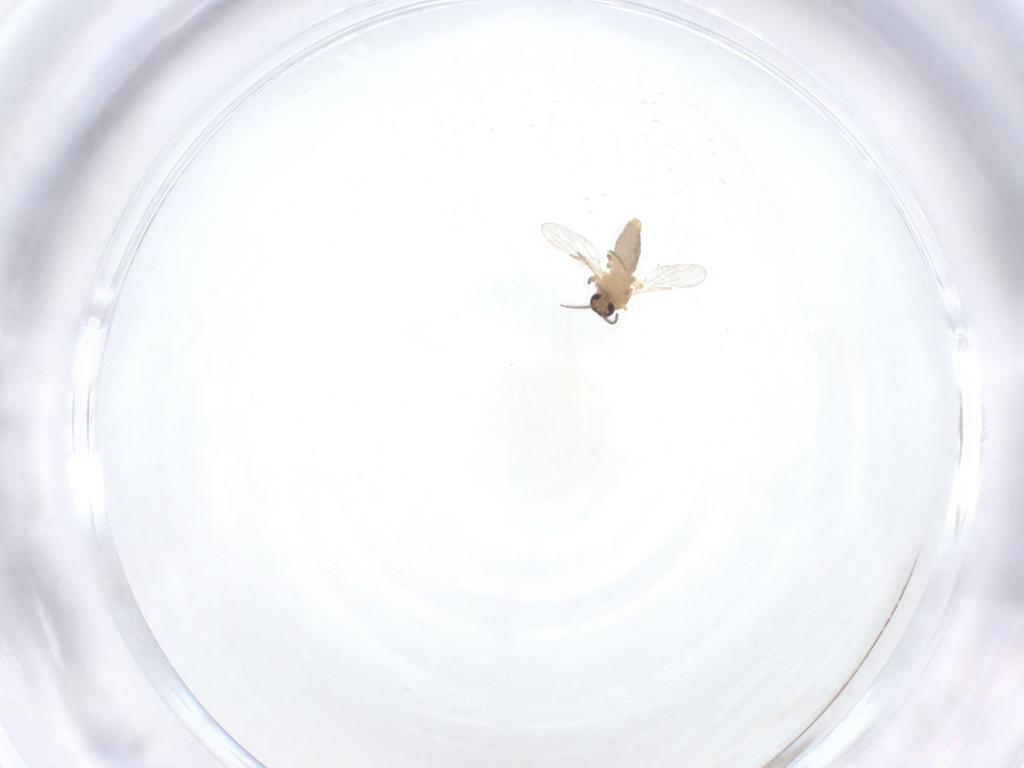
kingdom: Animalia
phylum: Arthropoda
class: Insecta
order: Diptera
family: Ceratopogonidae
